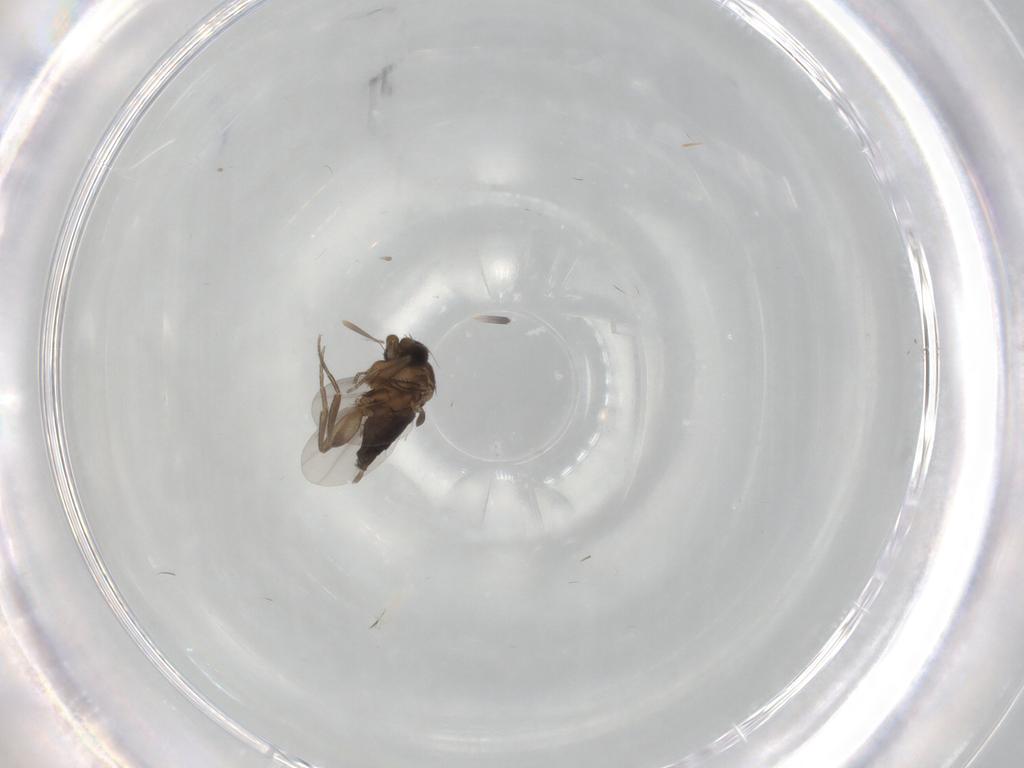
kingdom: Animalia
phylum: Arthropoda
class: Insecta
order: Diptera
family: Phoridae
